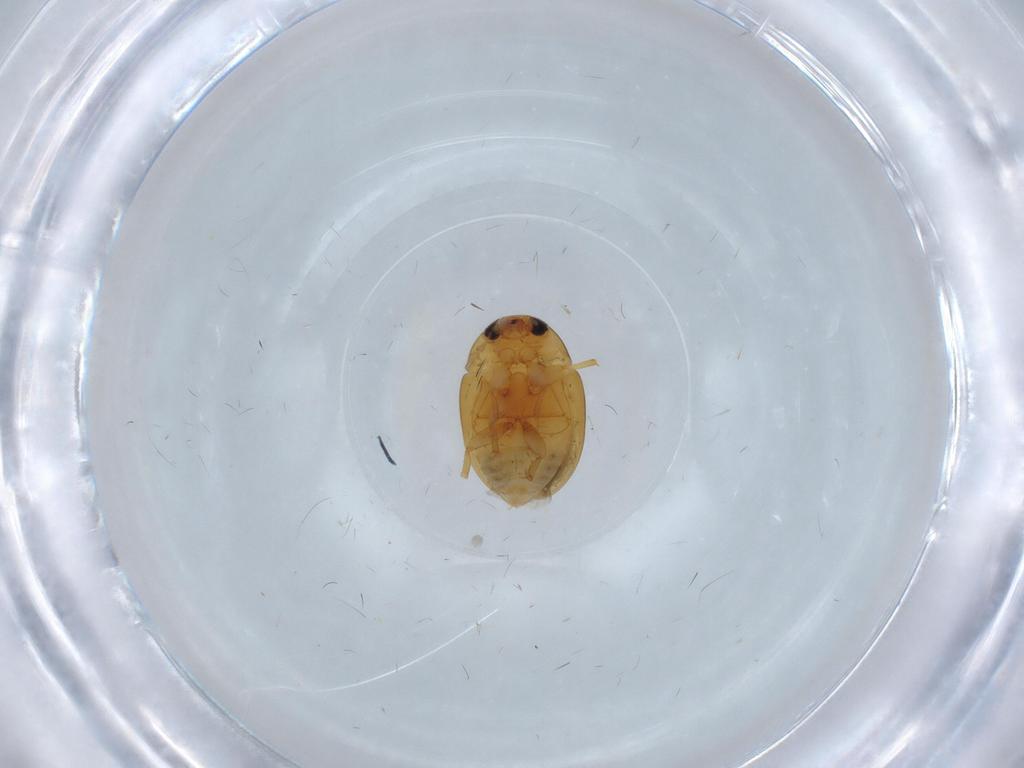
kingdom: Animalia
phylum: Arthropoda
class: Insecta
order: Coleoptera
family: Phalacridae
